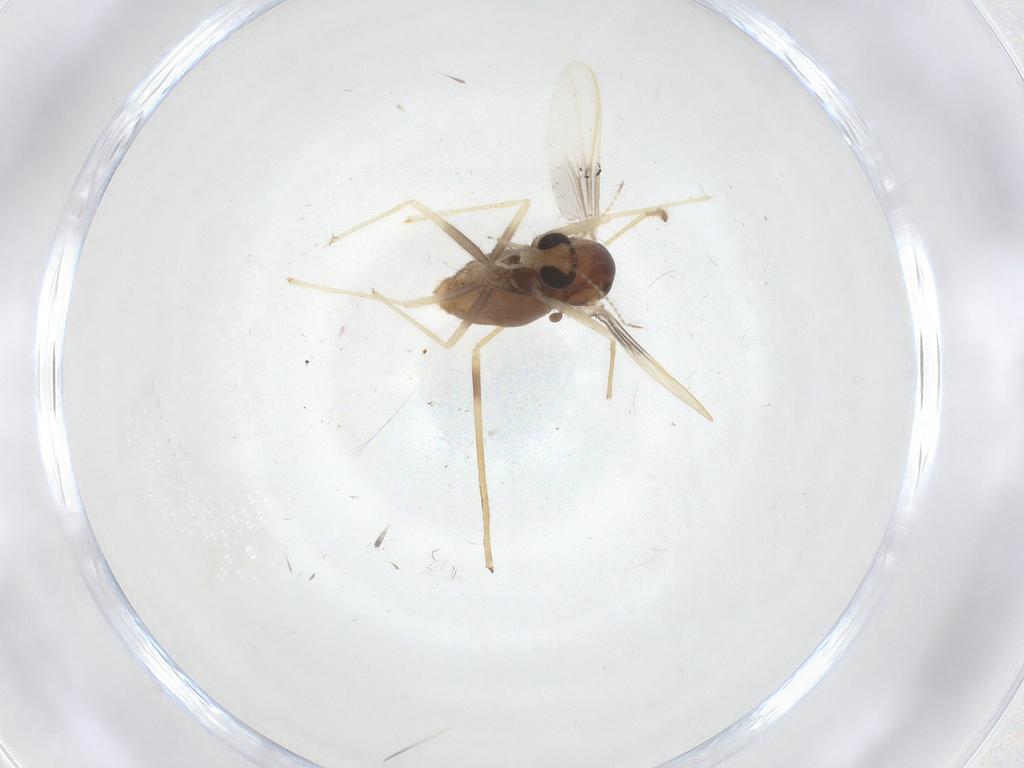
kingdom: Animalia
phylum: Arthropoda
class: Insecta
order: Diptera
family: Chironomidae
